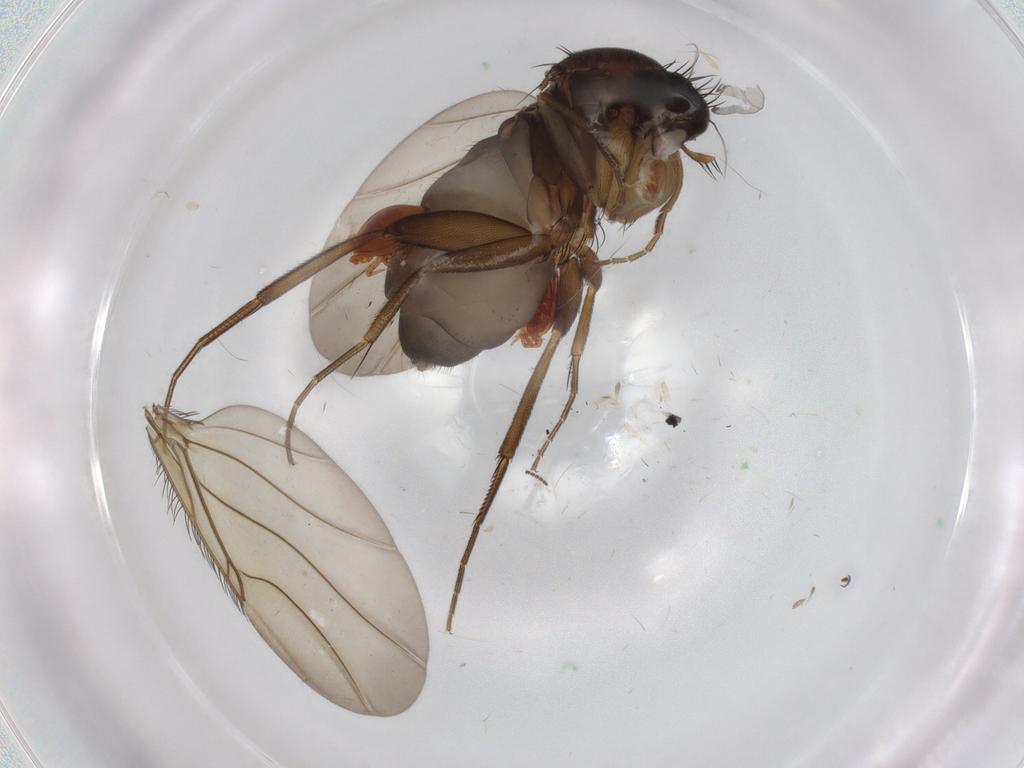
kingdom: Animalia
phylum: Arthropoda
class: Insecta
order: Diptera
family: Phoridae
